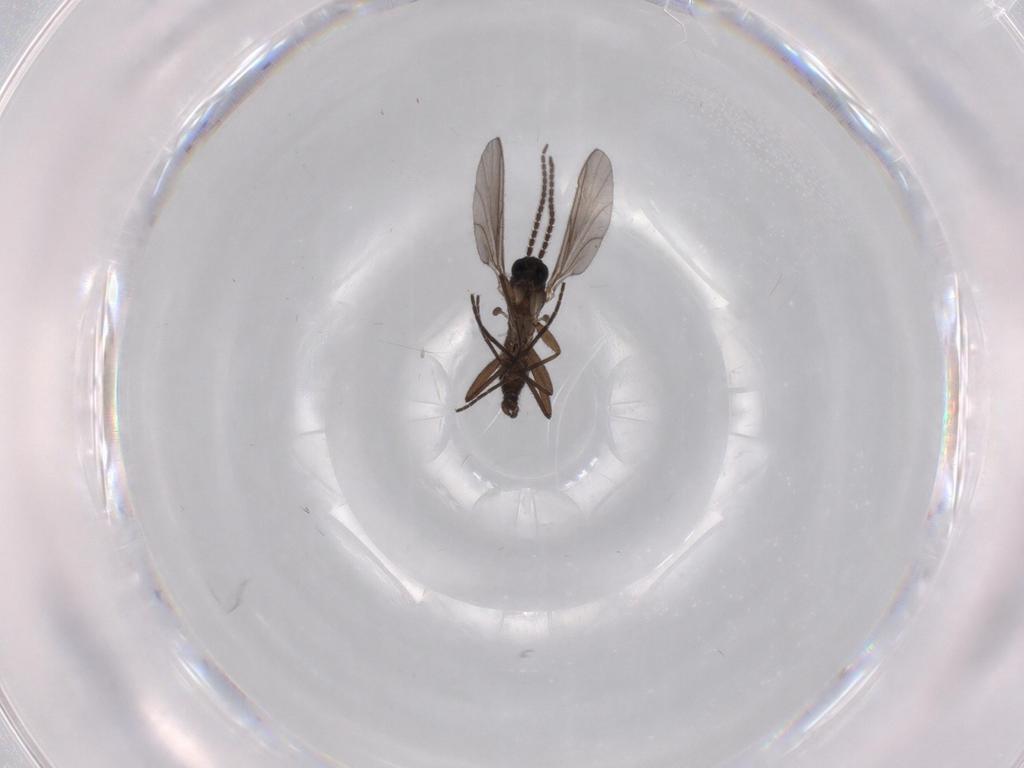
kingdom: Animalia
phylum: Arthropoda
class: Insecta
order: Diptera
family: Sciaridae
